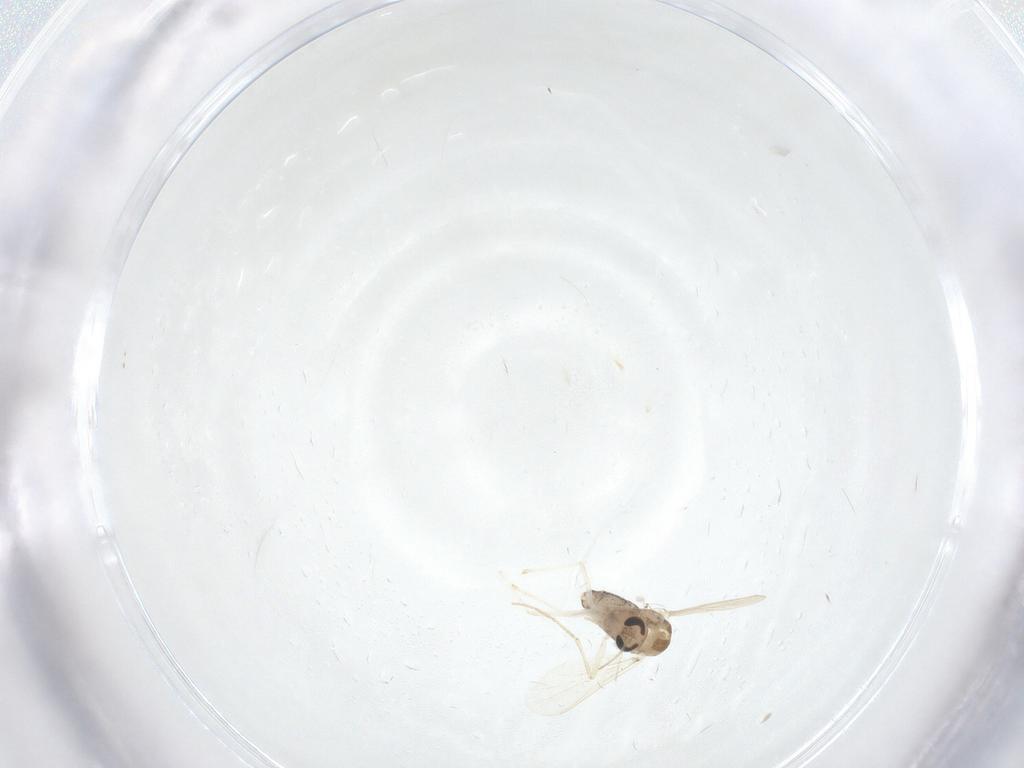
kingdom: Animalia
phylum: Arthropoda
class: Insecta
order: Diptera
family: Chironomidae
